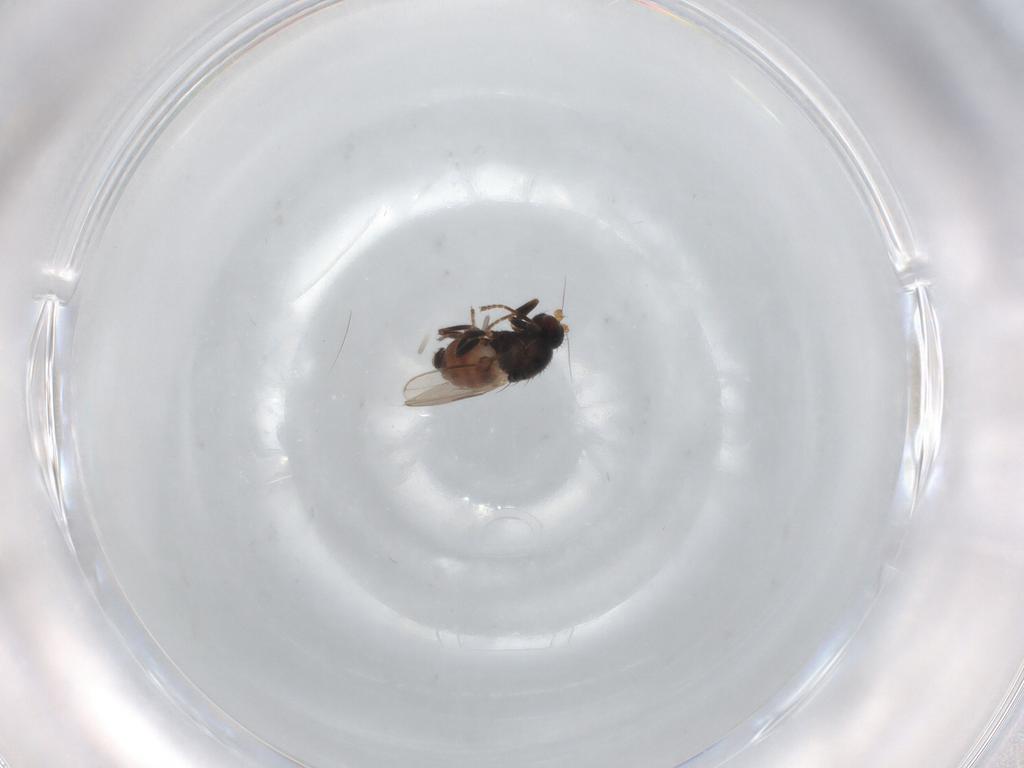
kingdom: Animalia
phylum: Arthropoda
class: Insecta
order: Diptera
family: Sphaeroceridae
